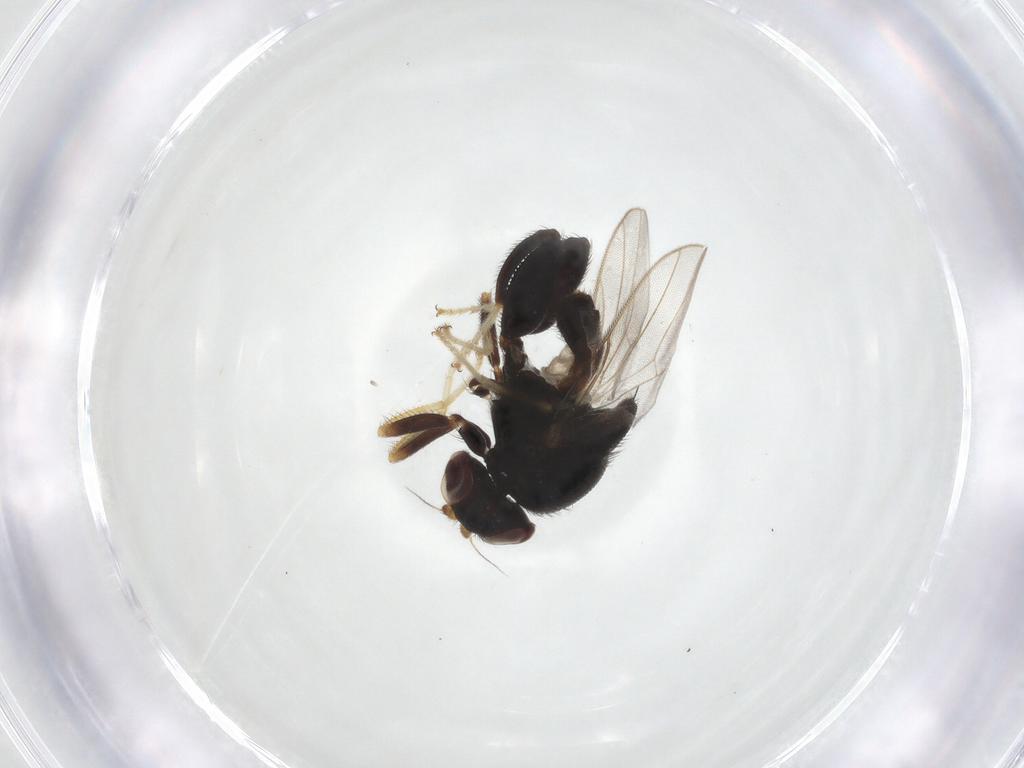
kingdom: Animalia
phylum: Arthropoda
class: Insecta
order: Diptera
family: Chloropidae
